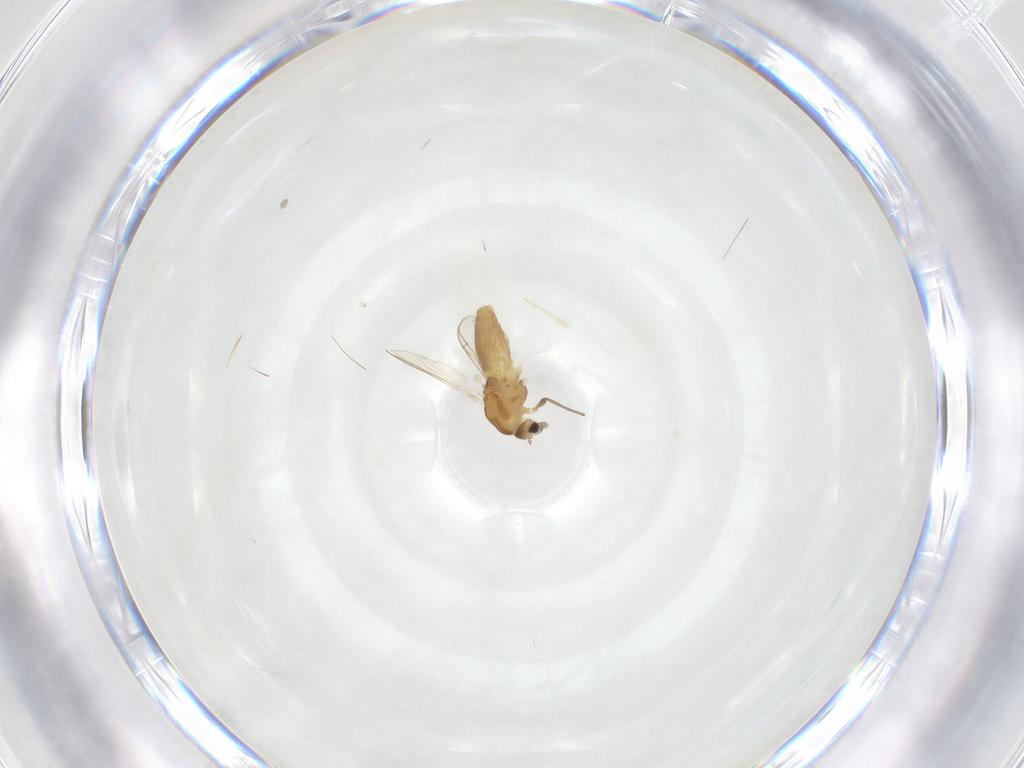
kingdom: Animalia
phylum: Arthropoda
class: Insecta
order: Diptera
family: Chironomidae
